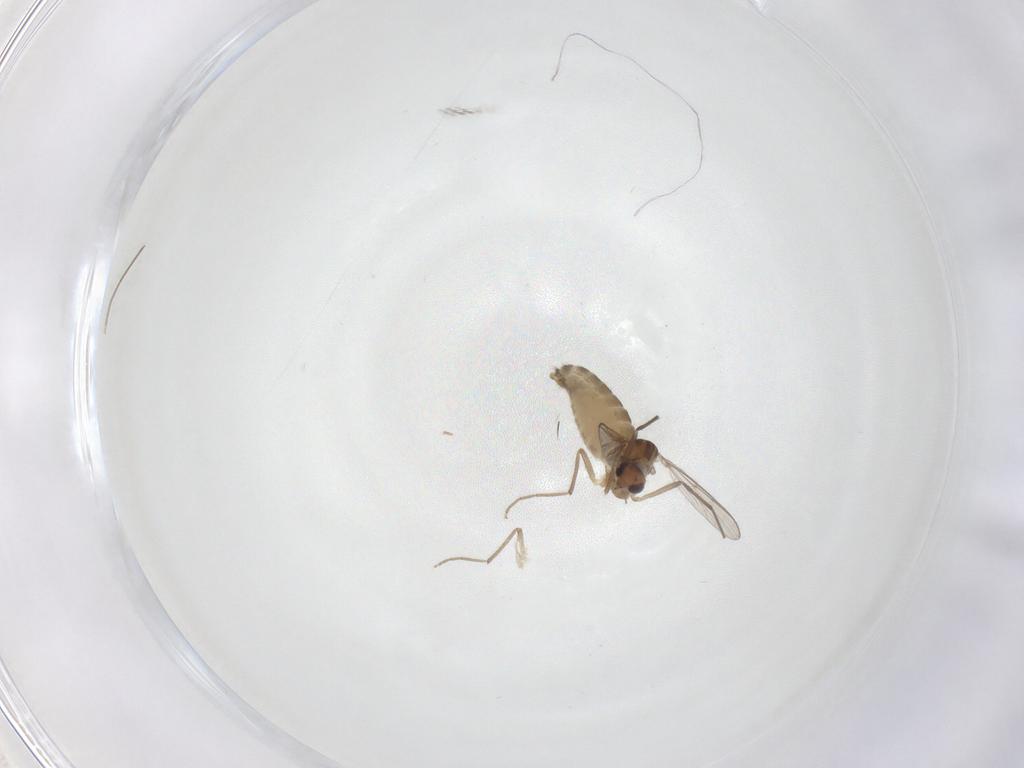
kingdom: Animalia
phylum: Arthropoda
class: Insecta
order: Diptera
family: Chironomidae
